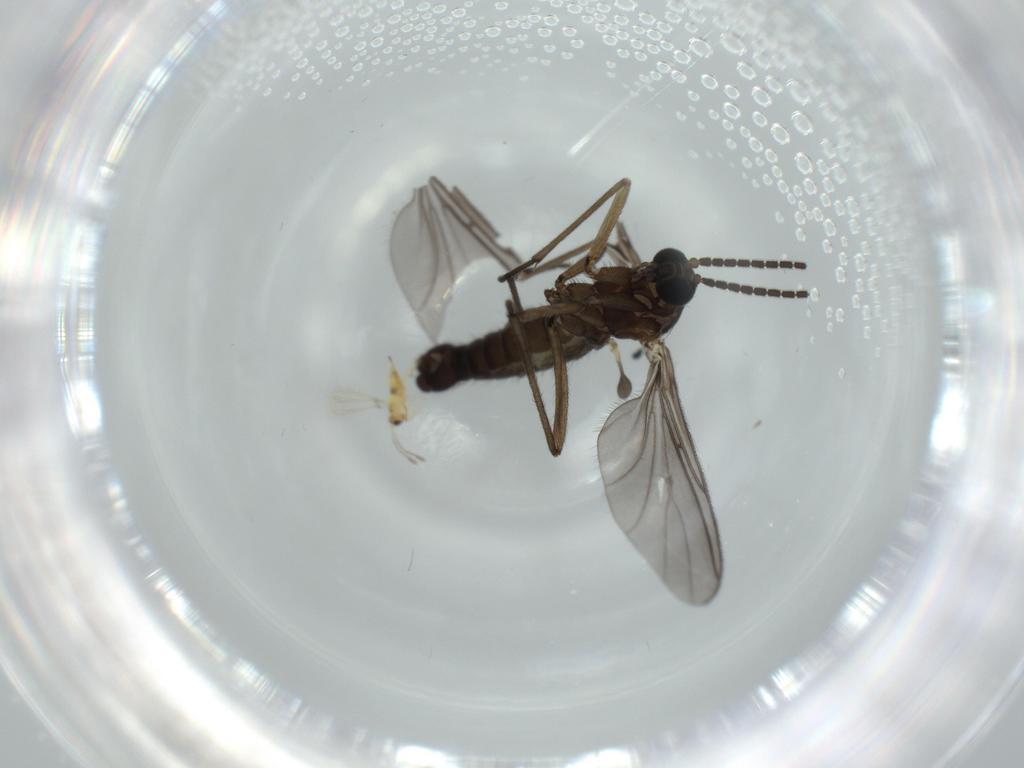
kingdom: Animalia
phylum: Arthropoda
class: Insecta
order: Diptera
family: Sciaridae
